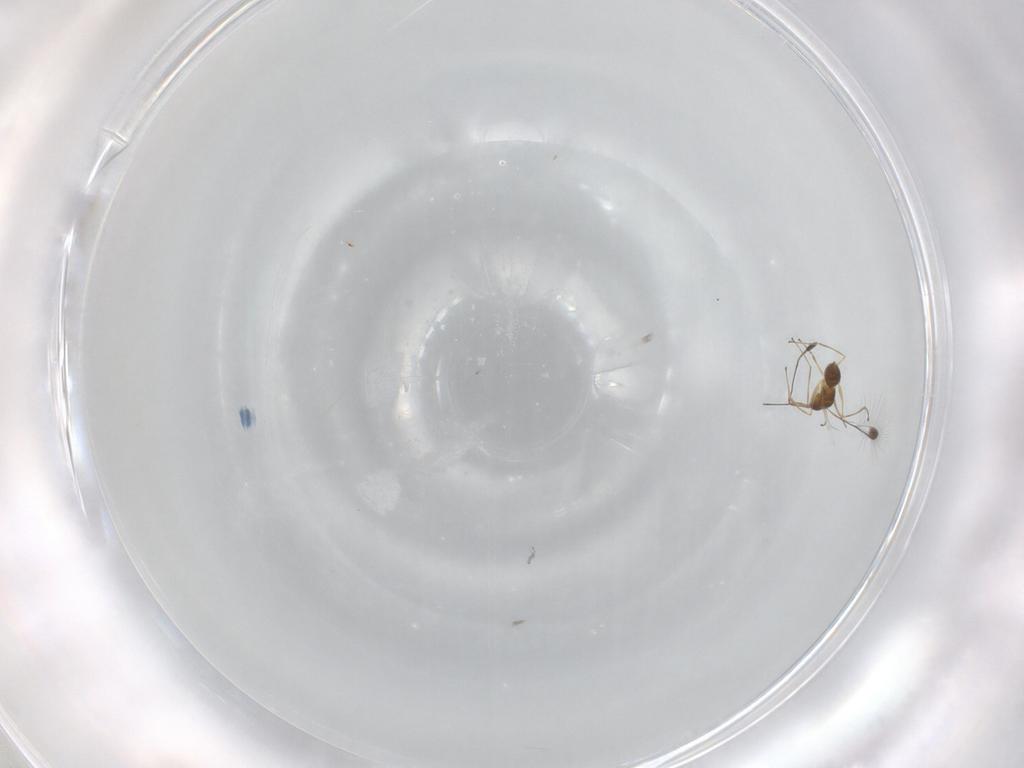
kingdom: Animalia
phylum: Arthropoda
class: Insecta
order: Hymenoptera
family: Mymaridae
